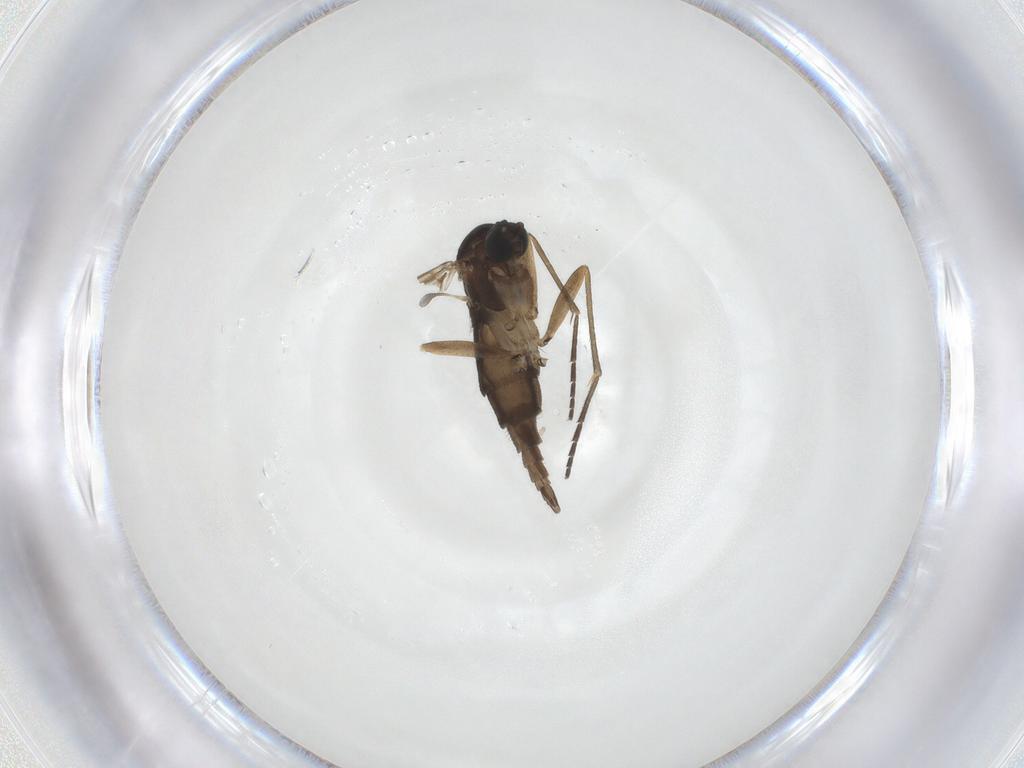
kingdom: Animalia
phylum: Arthropoda
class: Insecta
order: Diptera
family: Sciaridae
